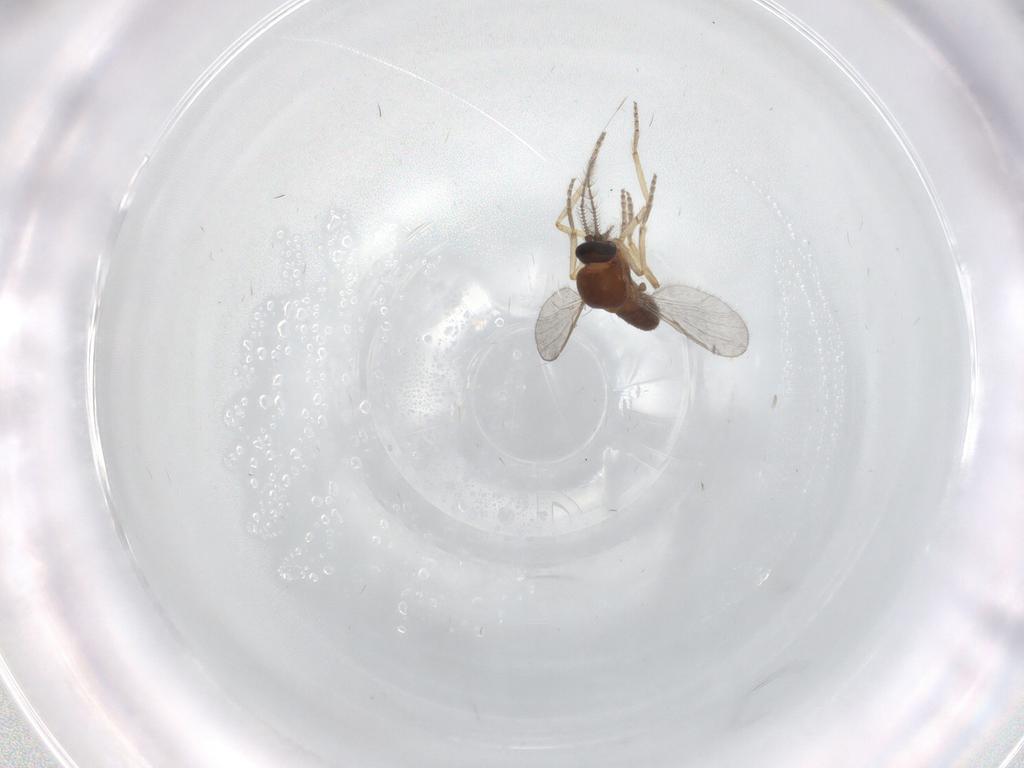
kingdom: Animalia
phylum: Arthropoda
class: Insecta
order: Diptera
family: Ceratopogonidae
